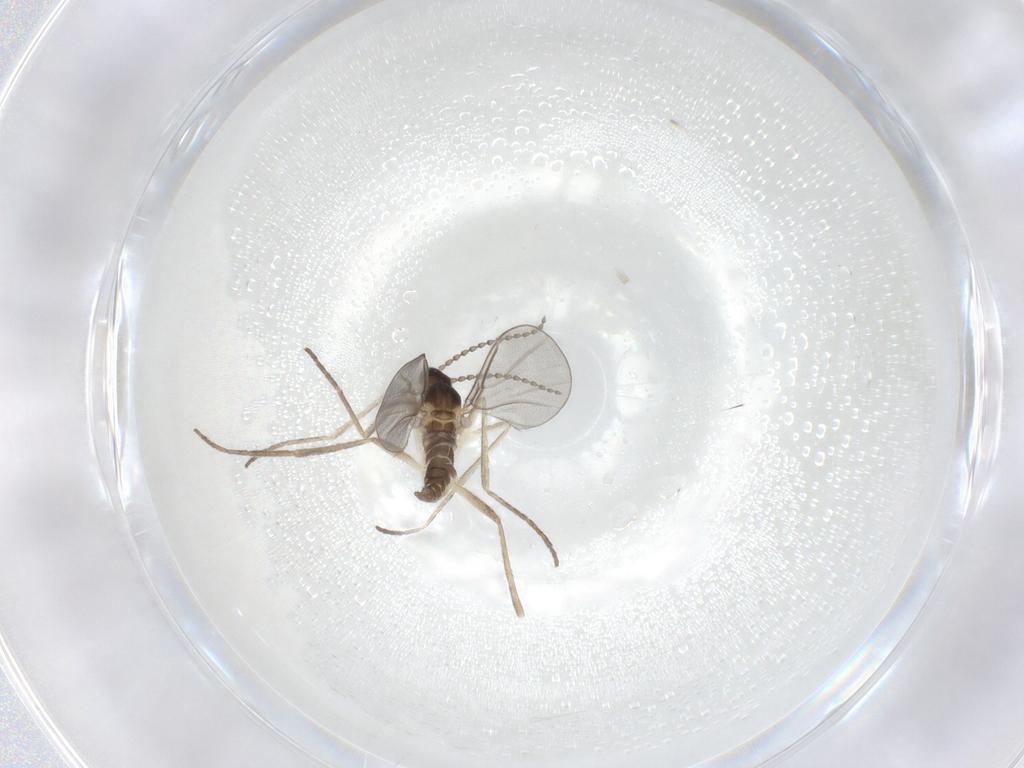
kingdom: Animalia
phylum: Arthropoda
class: Insecta
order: Diptera
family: Cecidomyiidae
